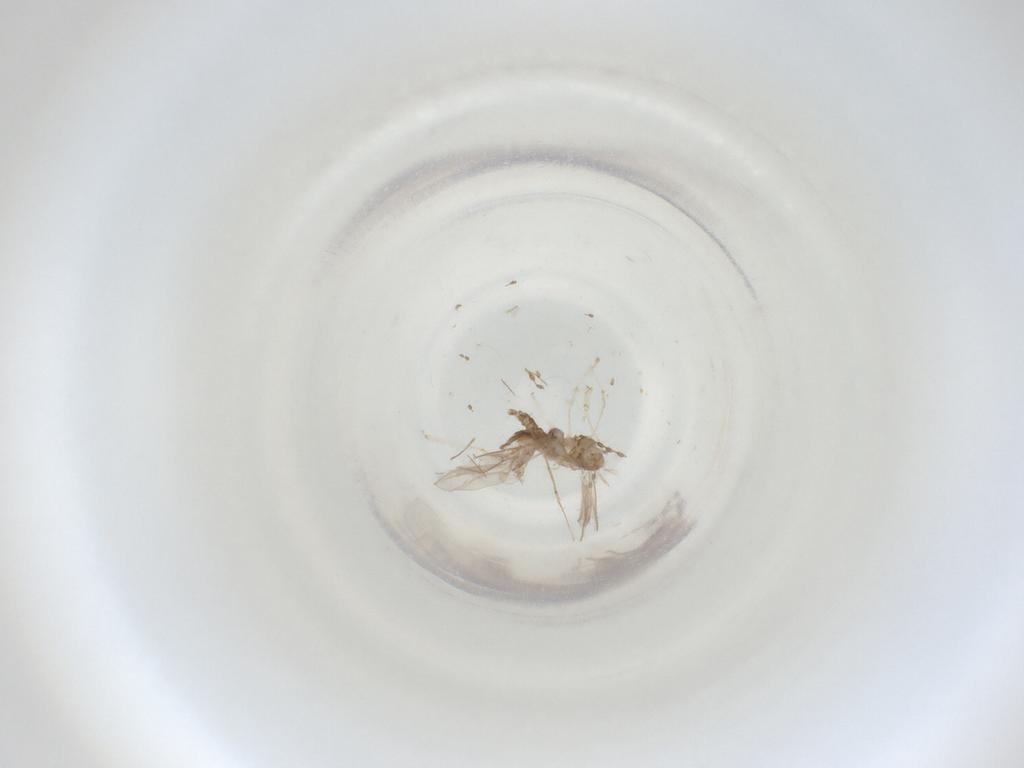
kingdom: Animalia
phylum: Arthropoda
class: Insecta
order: Diptera
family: Cecidomyiidae
